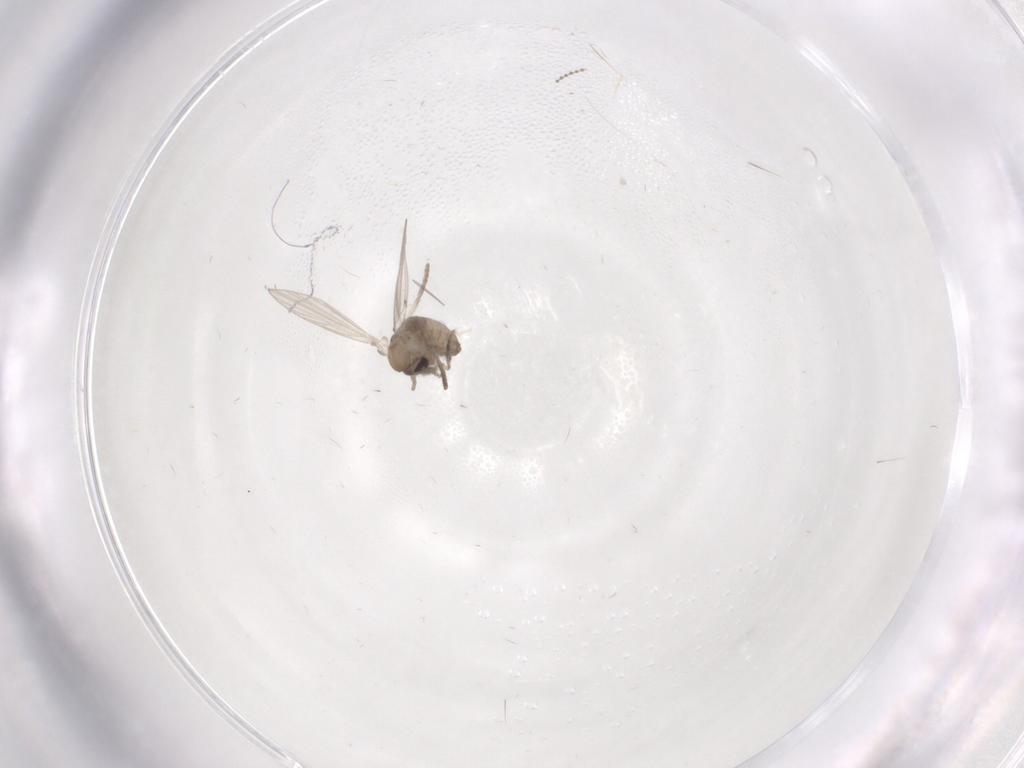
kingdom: Animalia
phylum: Arthropoda
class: Insecta
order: Diptera
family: Psychodidae
